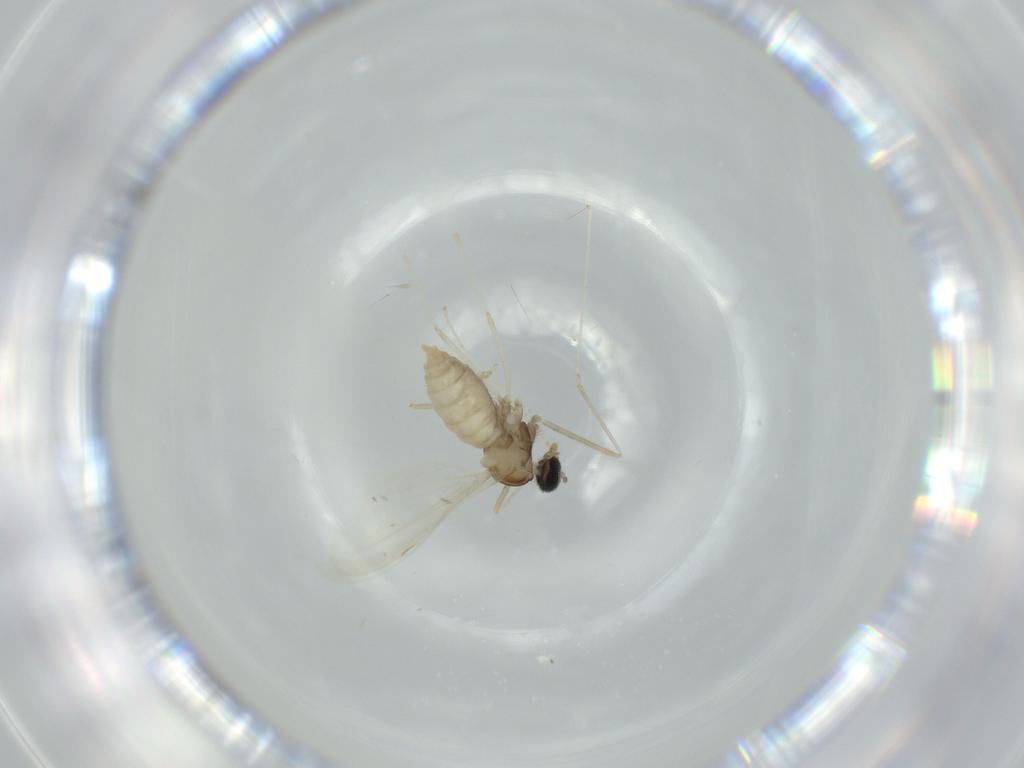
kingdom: Animalia
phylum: Arthropoda
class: Insecta
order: Diptera
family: Cecidomyiidae
